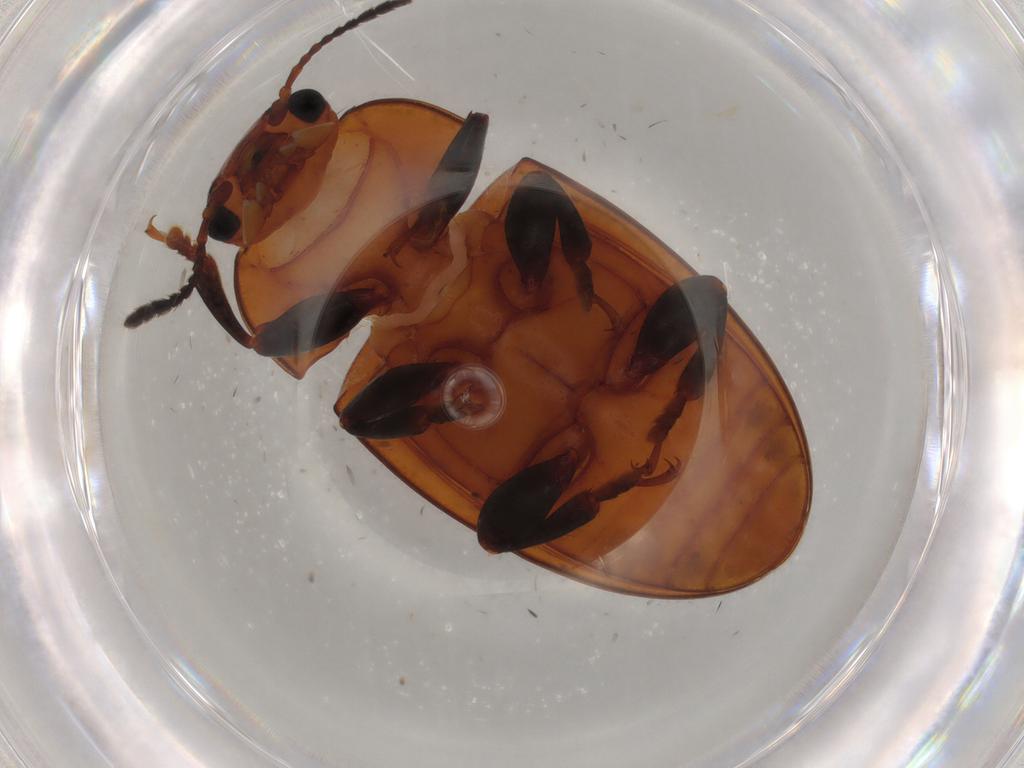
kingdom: Animalia
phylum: Arthropoda
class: Insecta
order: Coleoptera
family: Erotylidae
